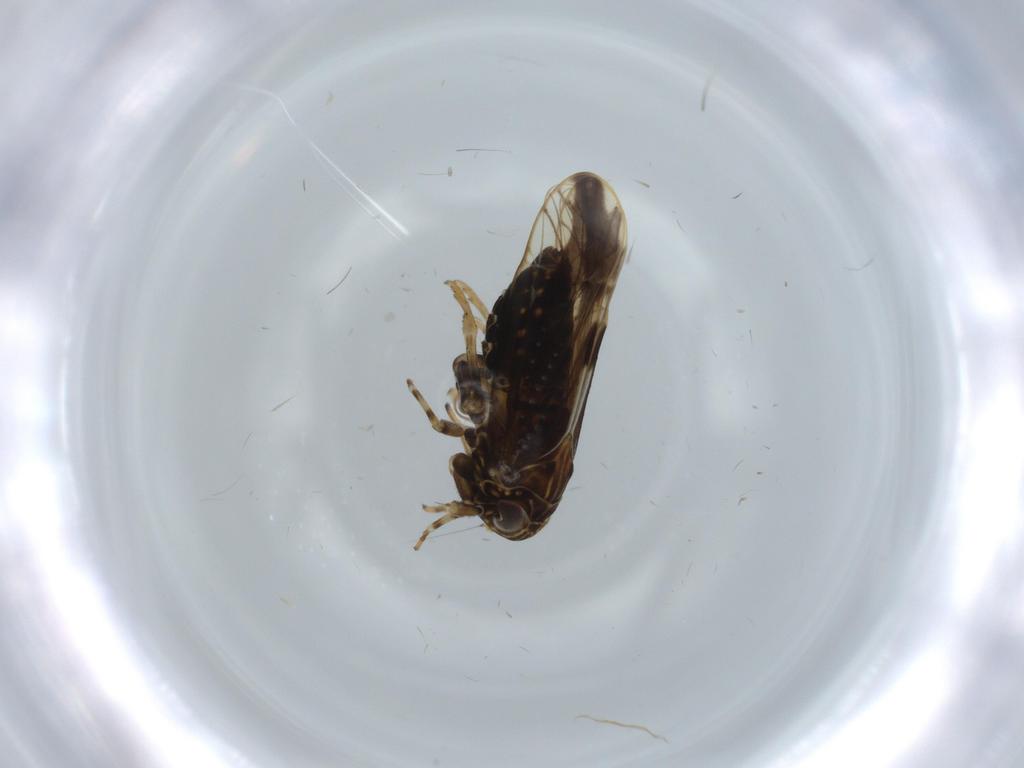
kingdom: Animalia
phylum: Arthropoda
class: Insecta
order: Hemiptera
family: Delphacidae
